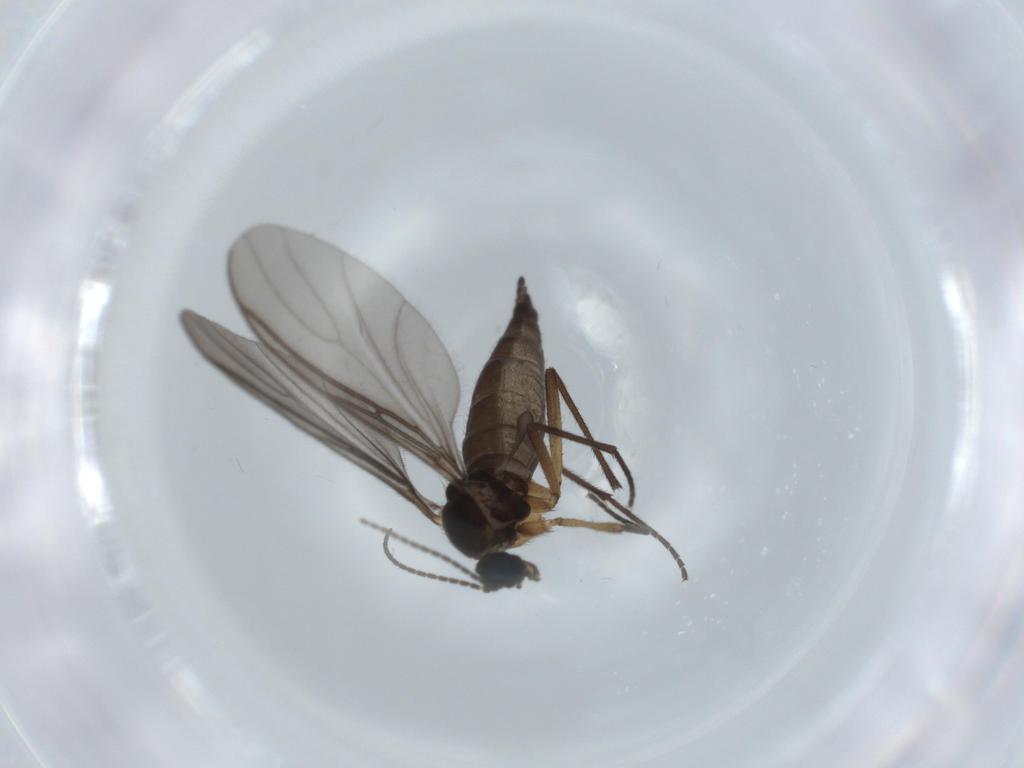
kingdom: Animalia
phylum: Arthropoda
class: Insecta
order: Diptera
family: Sciaridae
